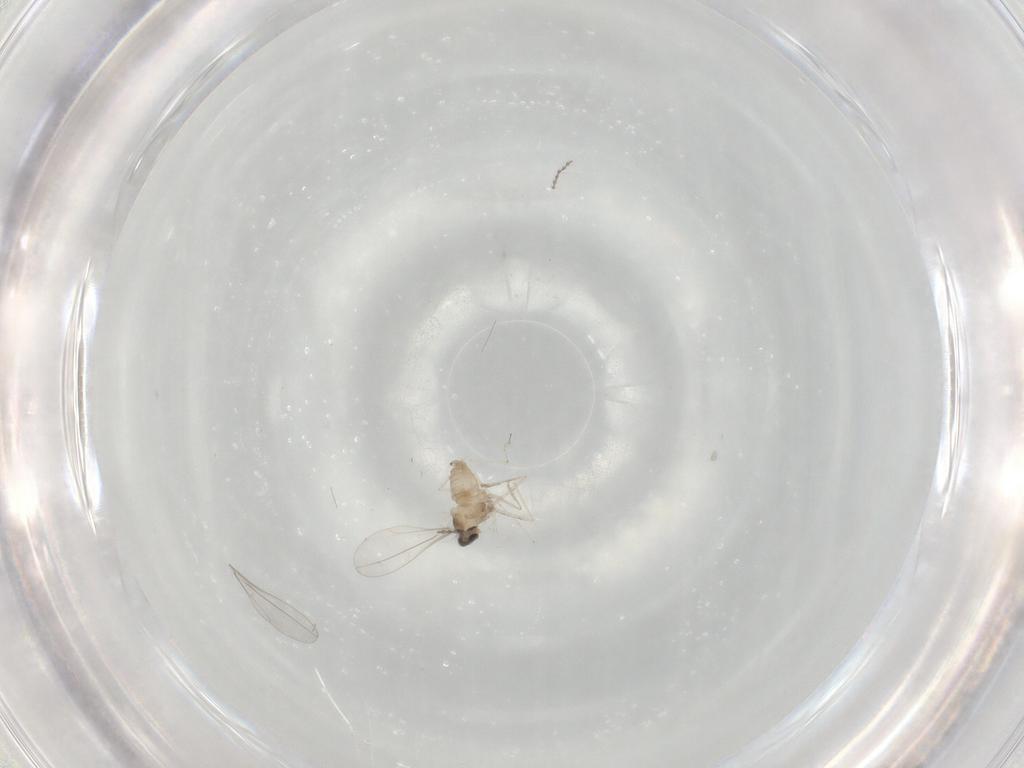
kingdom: Animalia
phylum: Arthropoda
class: Insecta
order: Diptera
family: Cecidomyiidae
